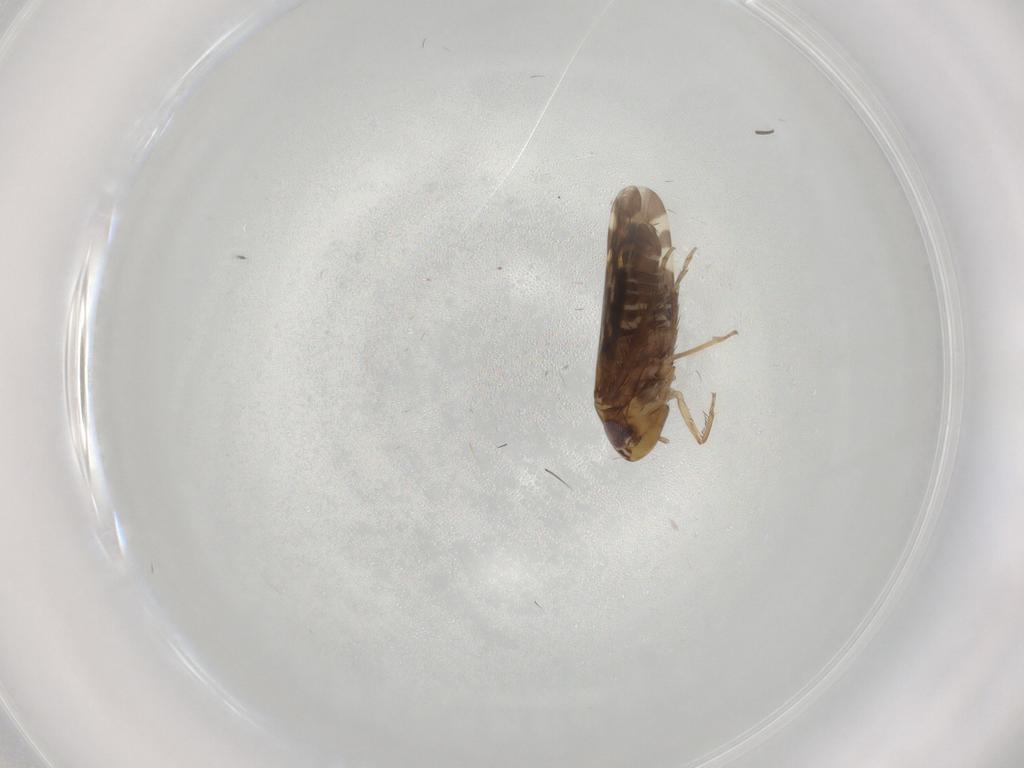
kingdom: Animalia
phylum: Arthropoda
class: Insecta
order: Hemiptera
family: Cicadellidae
